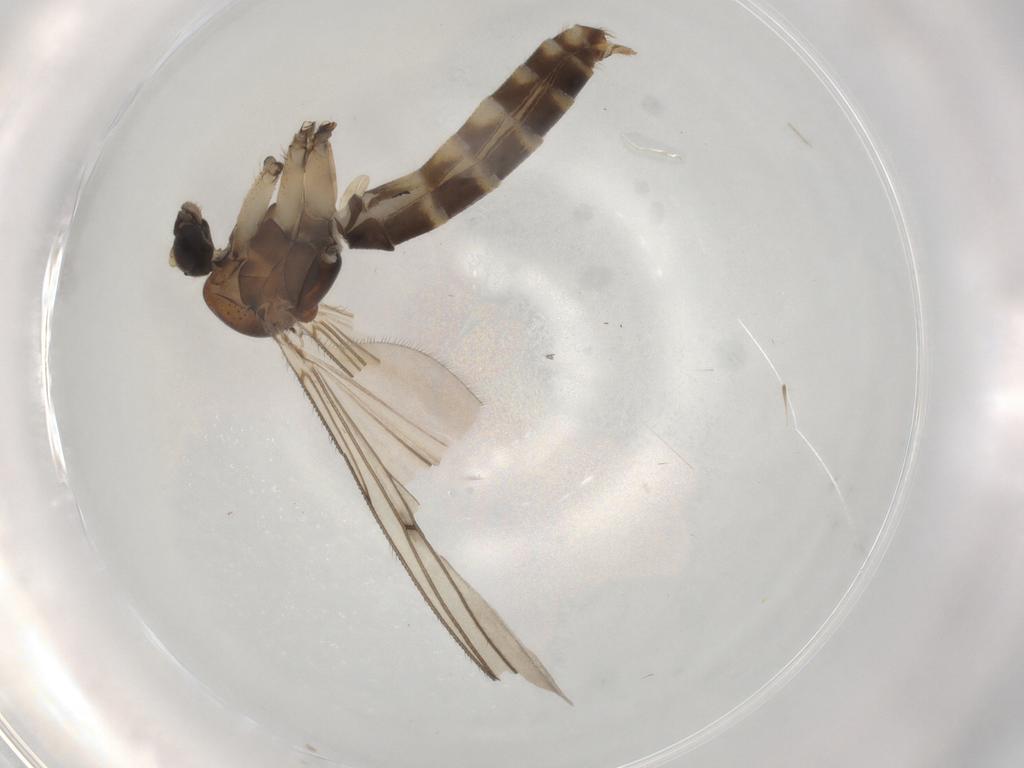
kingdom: Animalia
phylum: Arthropoda
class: Insecta
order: Diptera
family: Mycetophilidae
